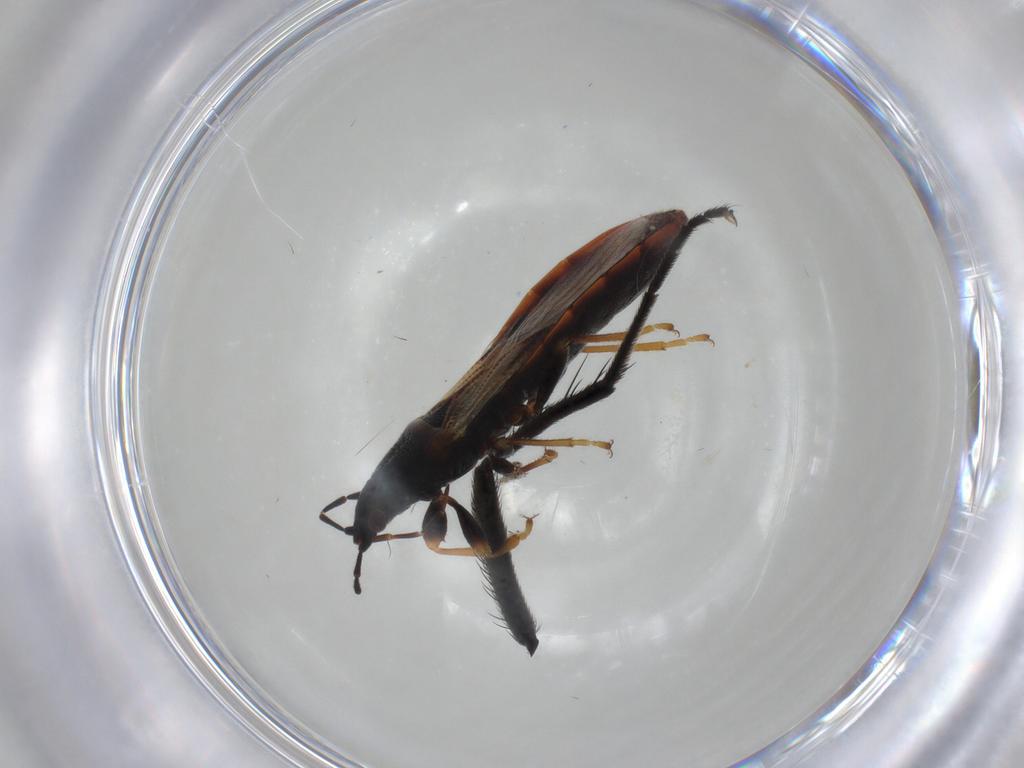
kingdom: Animalia
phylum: Arthropoda
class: Insecta
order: Hemiptera
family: Blissidae
